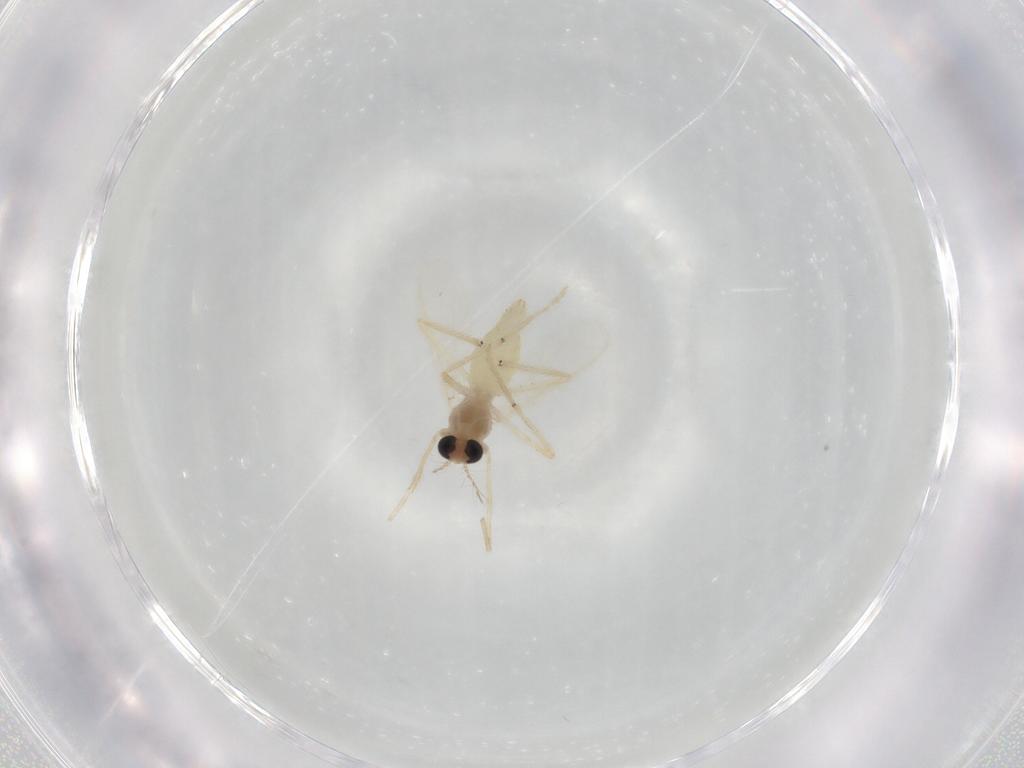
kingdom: Animalia
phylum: Arthropoda
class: Insecta
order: Diptera
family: Chironomidae
